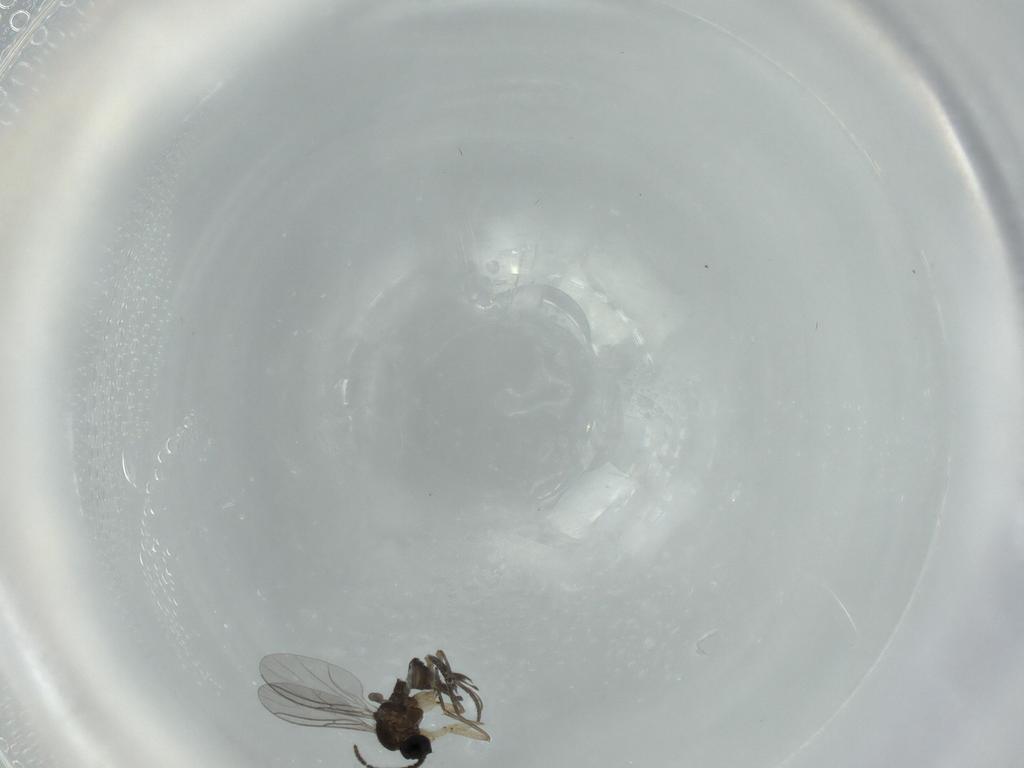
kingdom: Animalia
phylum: Arthropoda
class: Insecta
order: Diptera
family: Sciaridae
